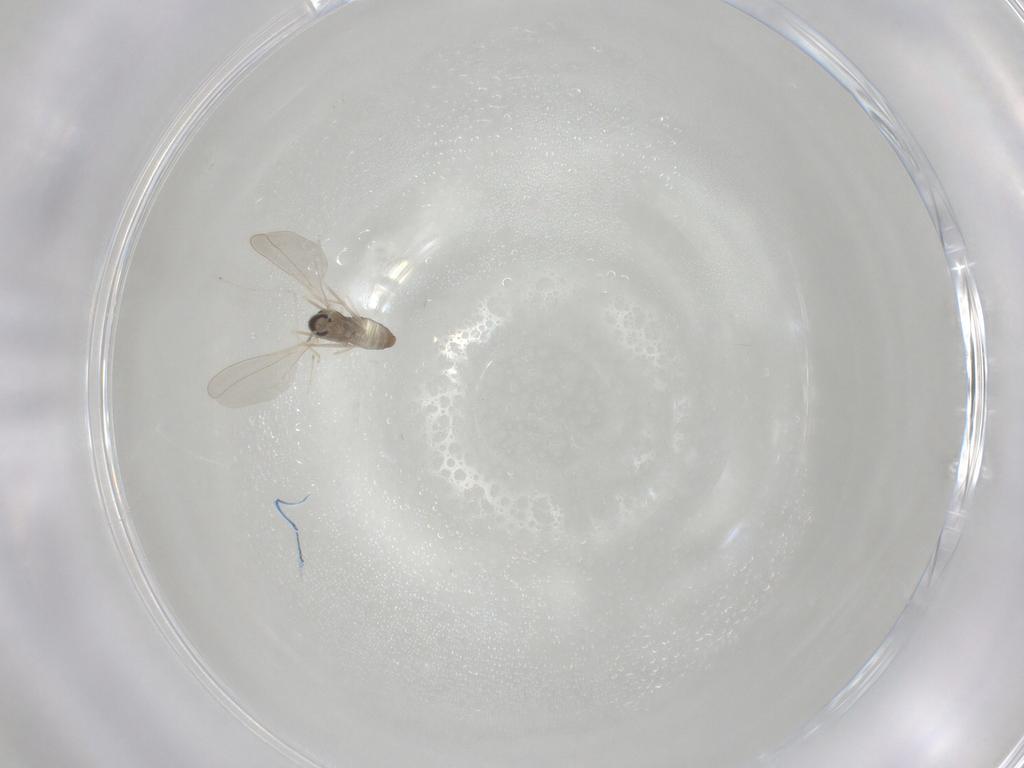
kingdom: Animalia
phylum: Arthropoda
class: Insecta
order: Diptera
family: Cecidomyiidae
